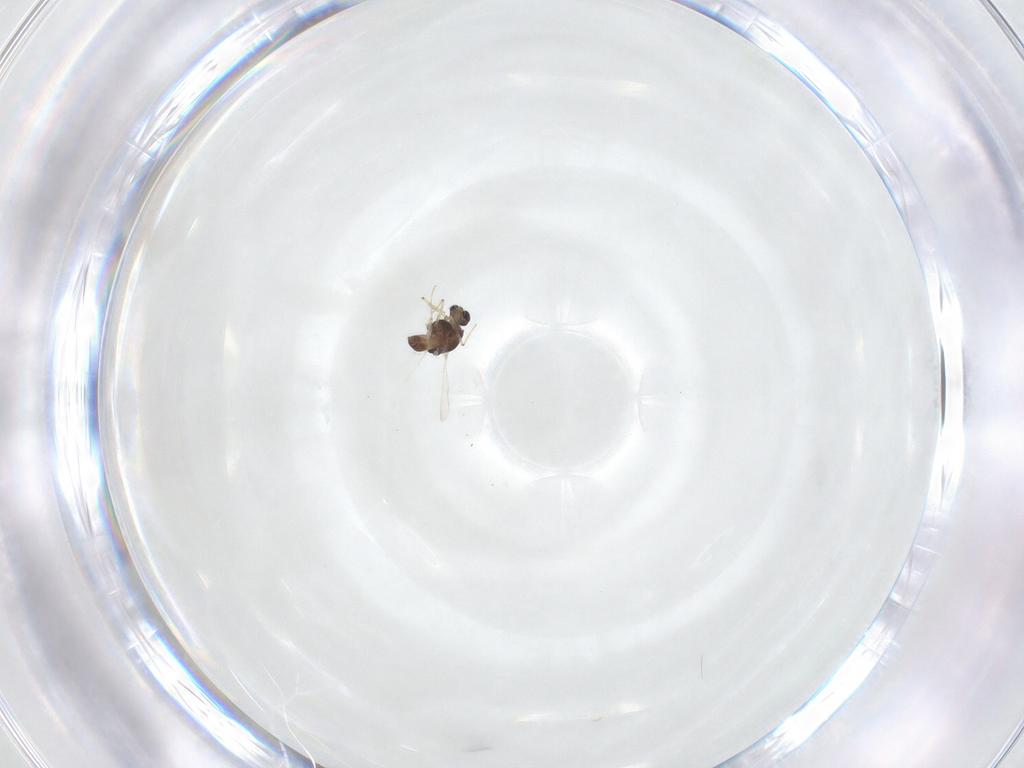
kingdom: Animalia
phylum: Arthropoda
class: Insecta
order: Diptera
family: Chironomidae
